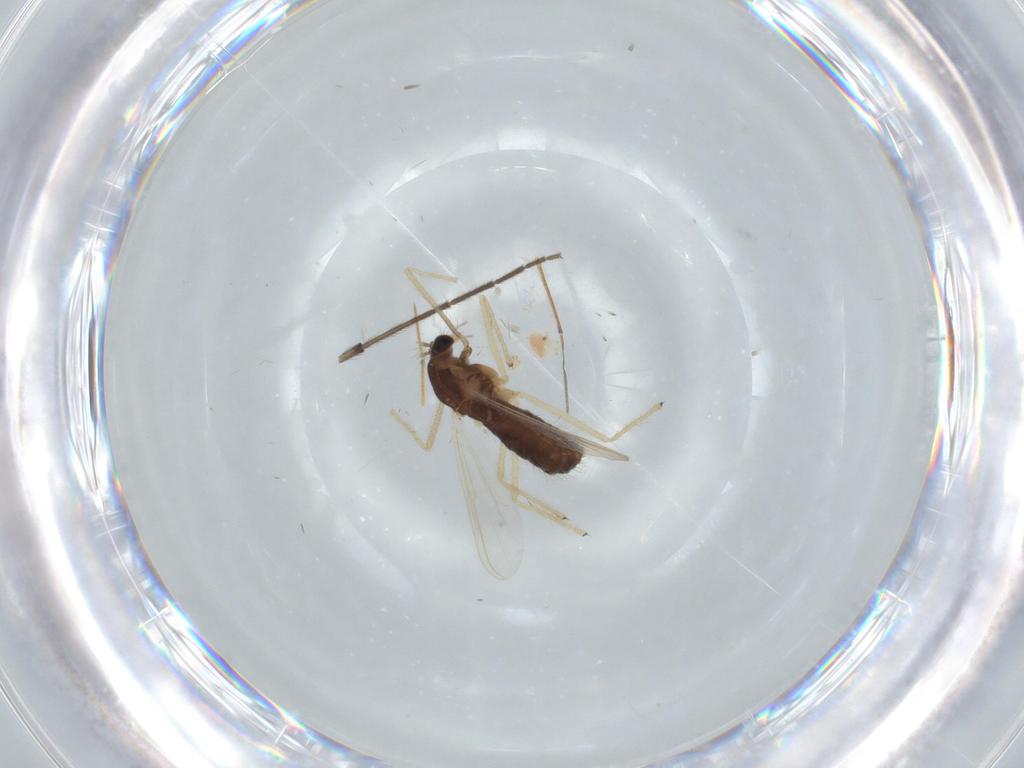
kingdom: Animalia
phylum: Arthropoda
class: Insecta
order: Diptera
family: Chironomidae
